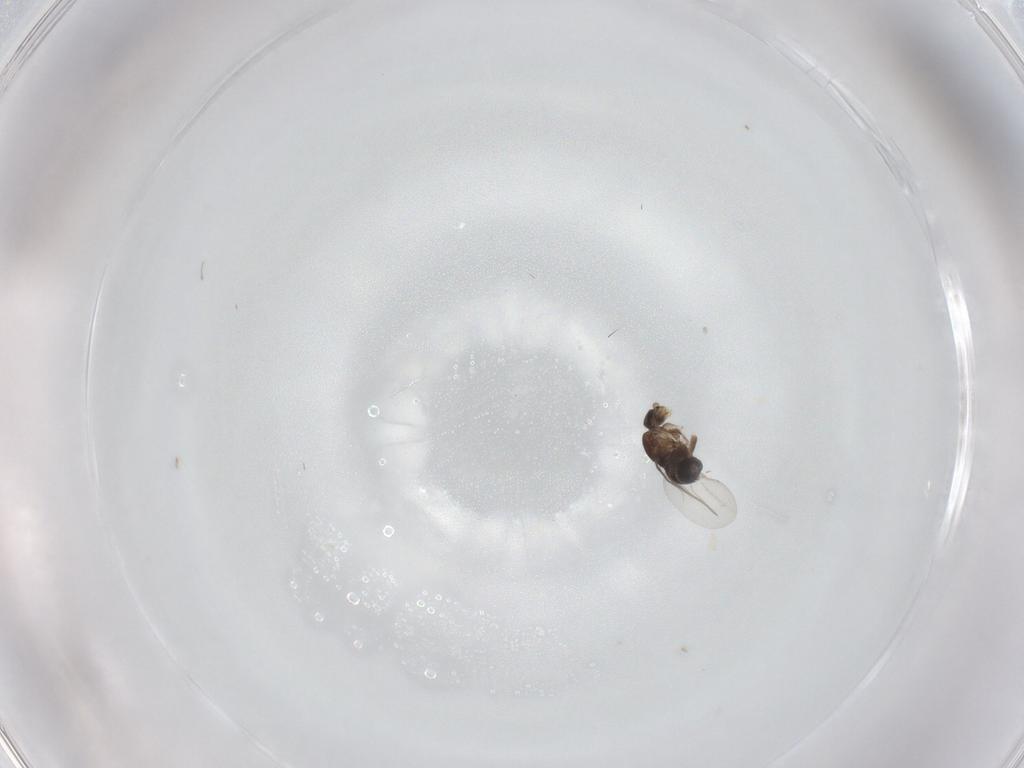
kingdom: Animalia
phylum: Arthropoda
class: Insecta
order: Diptera
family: Phoridae
